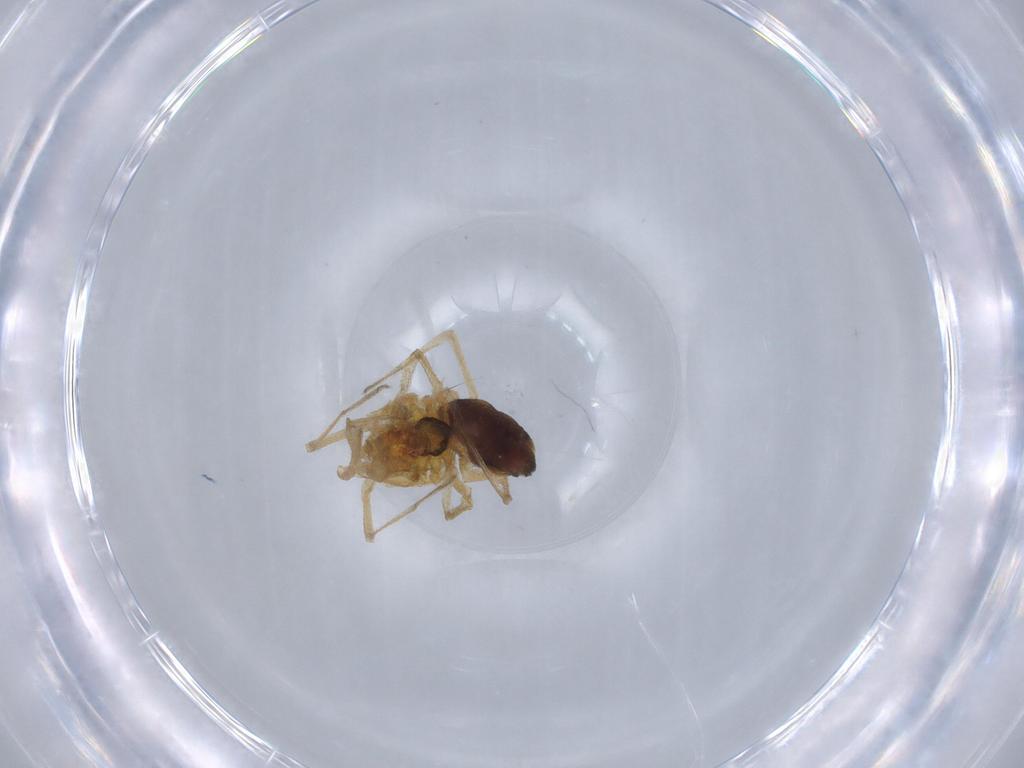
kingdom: Animalia
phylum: Arthropoda
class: Arachnida
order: Araneae
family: Linyphiidae
